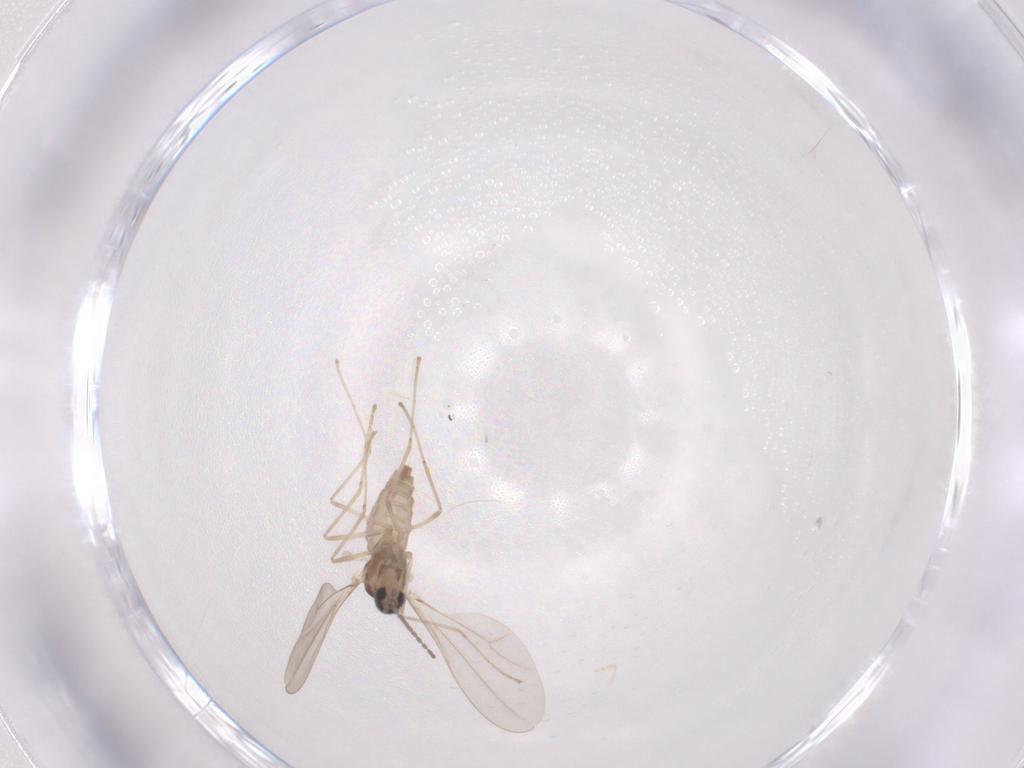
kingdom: Animalia
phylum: Arthropoda
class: Insecta
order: Diptera
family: Cecidomyiidae
